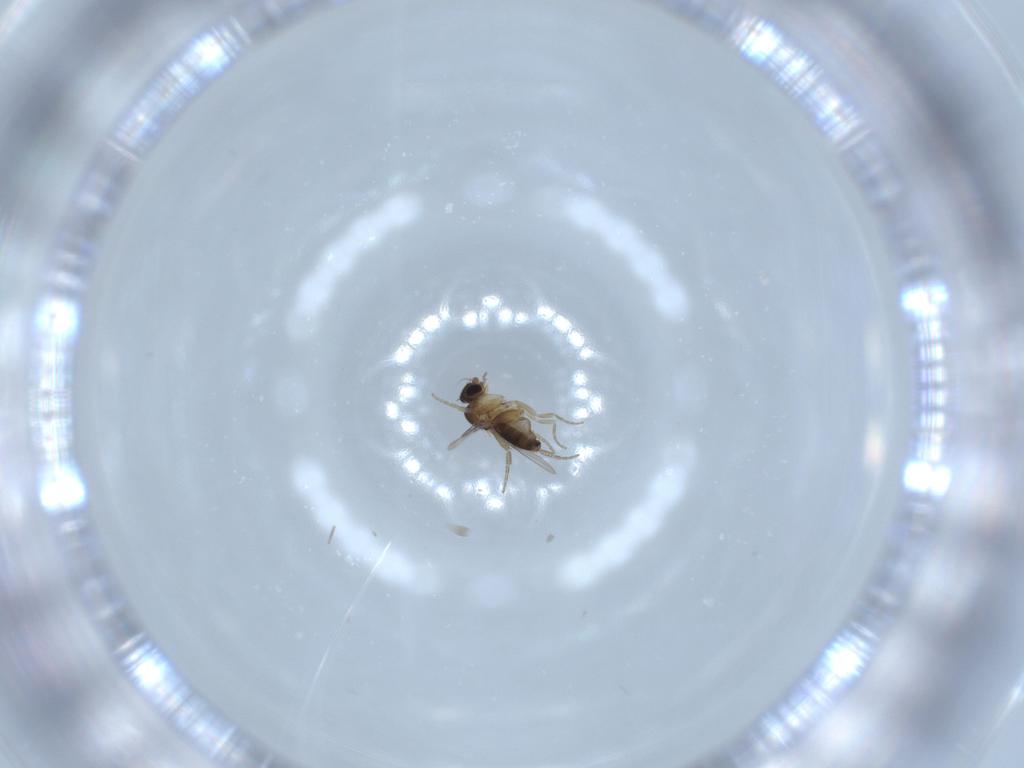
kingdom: Animalia
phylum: Arthropoda
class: Insecta
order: Diptera
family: Phoridae
